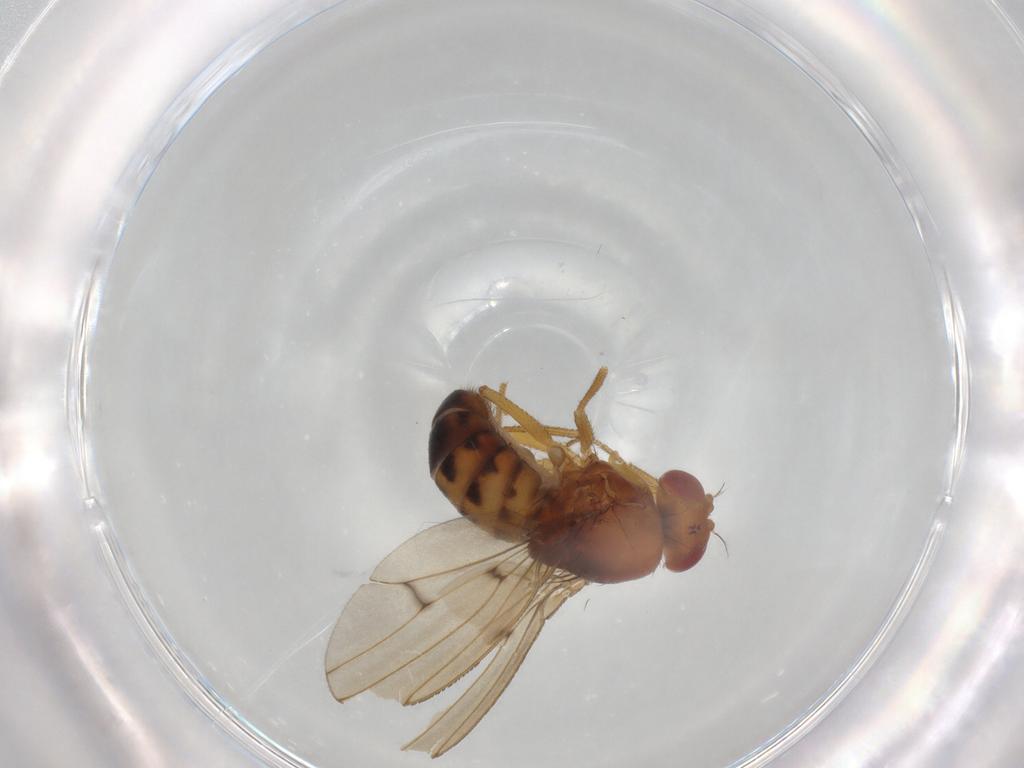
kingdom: Animalia
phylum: Arthropoda
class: Insecta
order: Diptera
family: Drosophilidae
